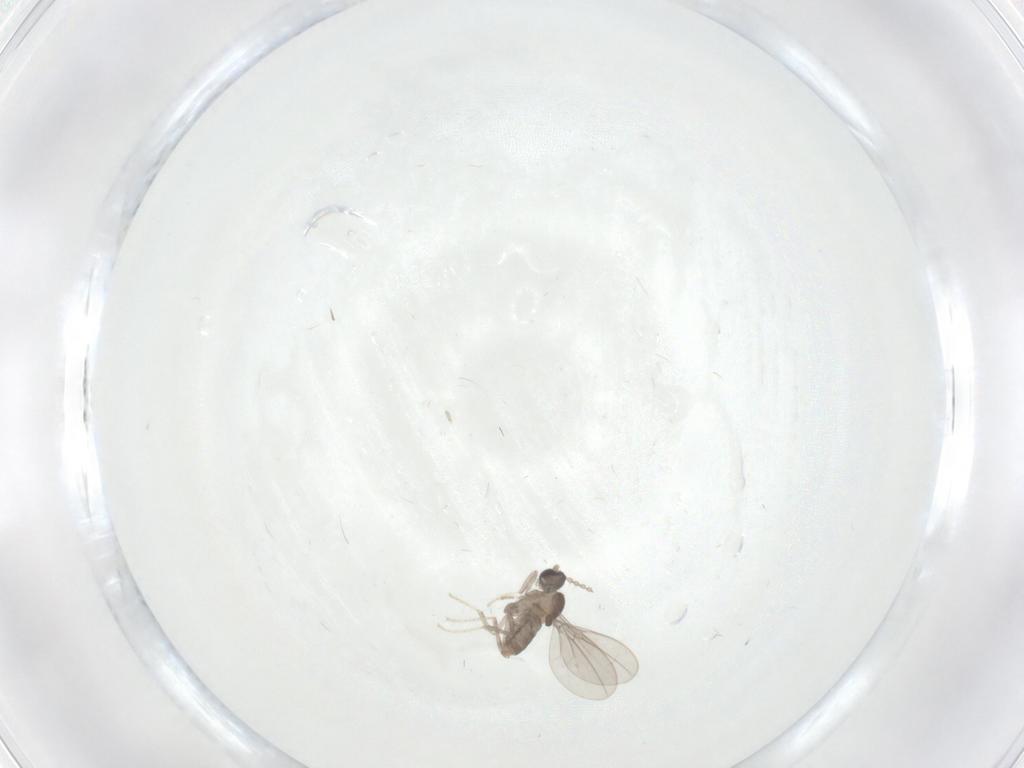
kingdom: Animalia
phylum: Arthropoda
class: Insecta
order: Diptera
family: Cecidomyiidae
